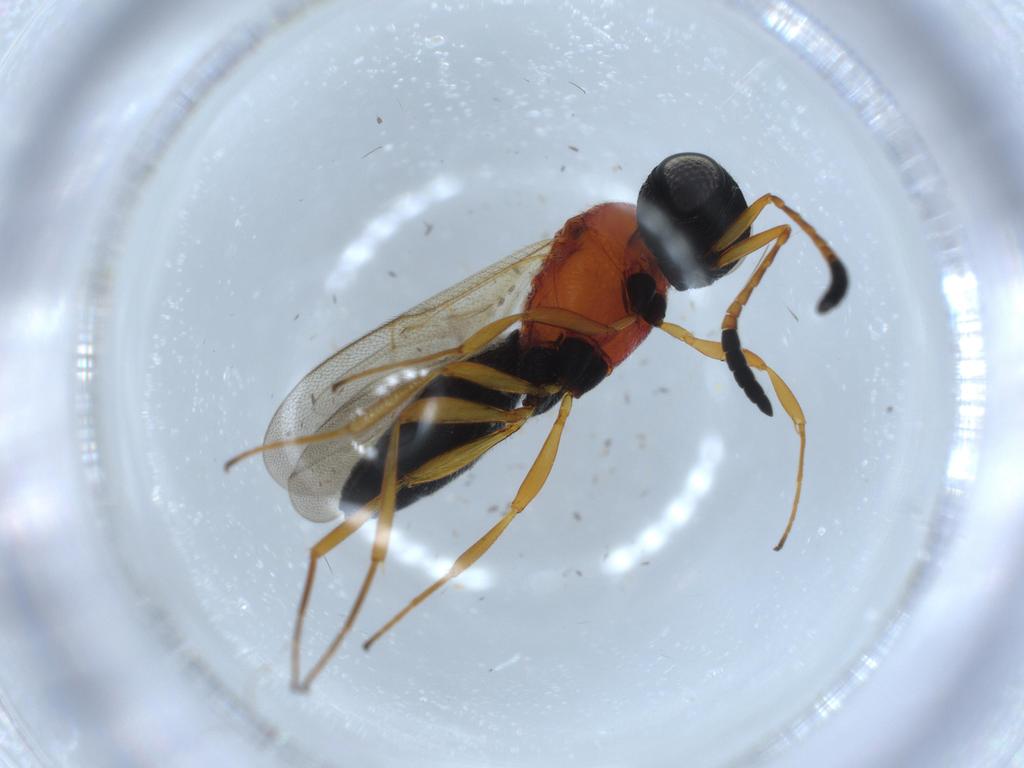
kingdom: Animalia
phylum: Arthropoda
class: Insecta
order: Hymenoptera
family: Scelionidae
